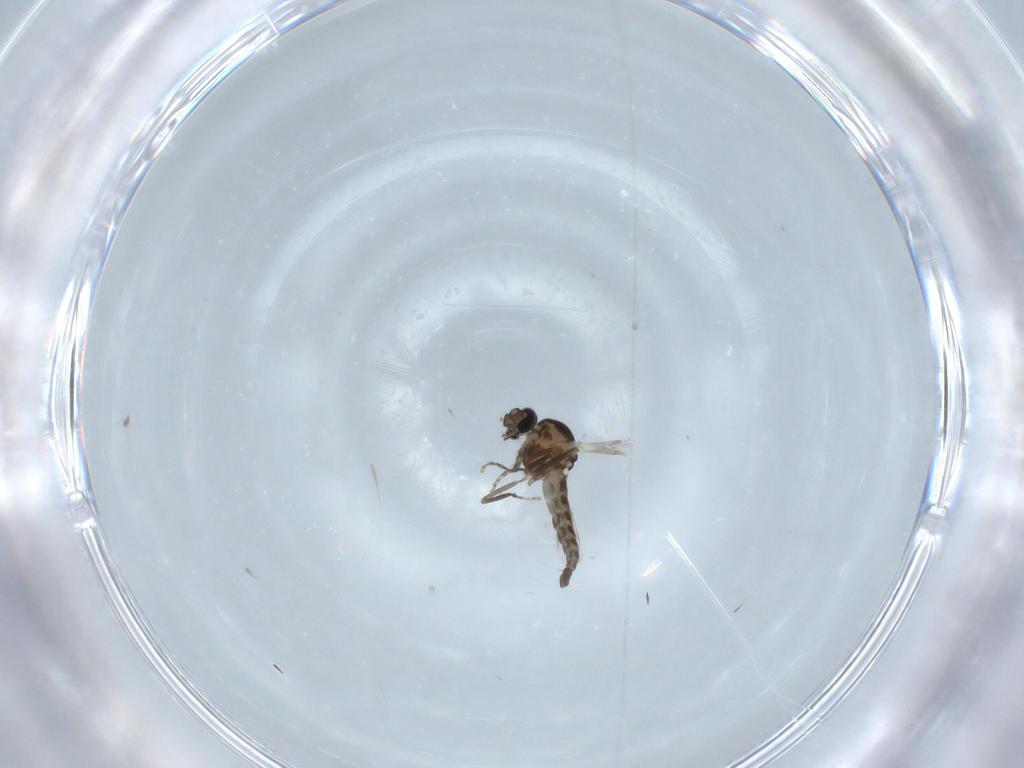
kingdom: Animalia
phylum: Arthropoda
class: Insecta
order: Diptera
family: Ceratopogonidae
